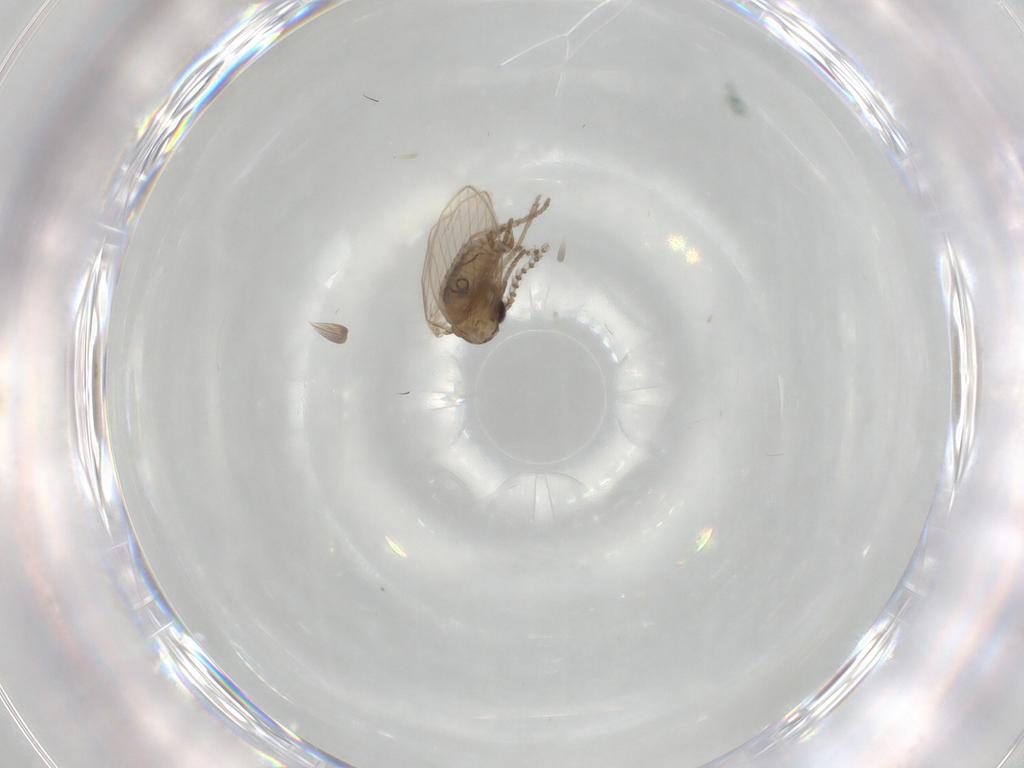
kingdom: Animalia
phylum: Arthropoda
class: Insecta
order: Diptera
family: Psychodidae
